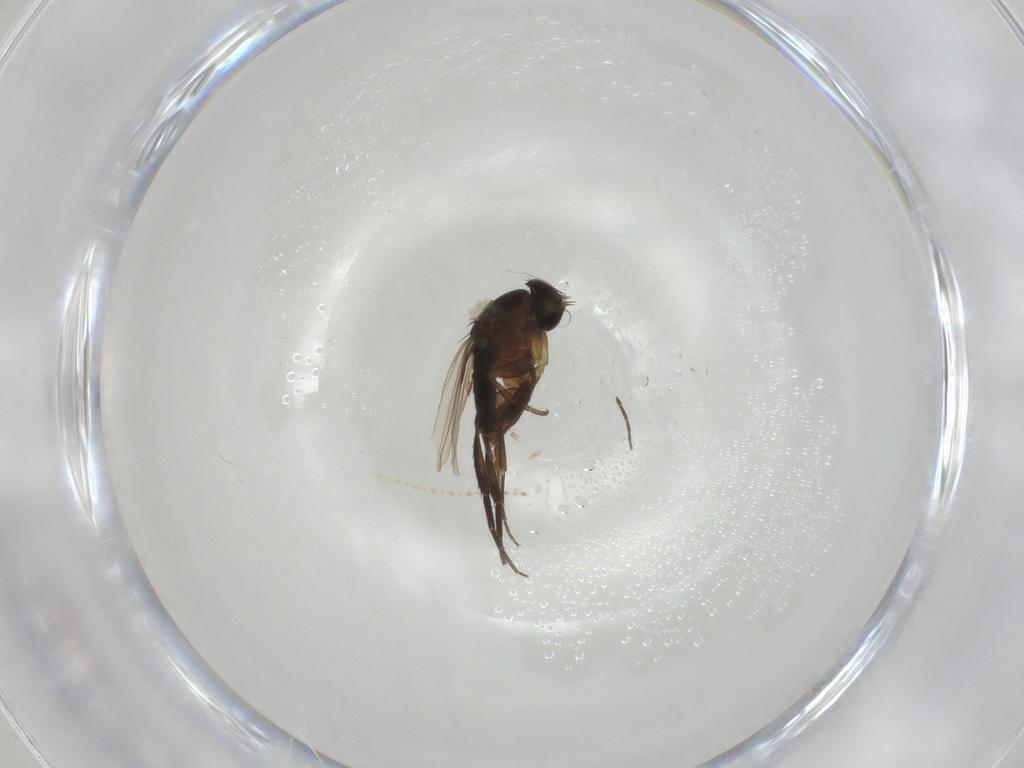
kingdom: Animalia
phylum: Arthropoda
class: Insecta
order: Diptera
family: Phoridae
